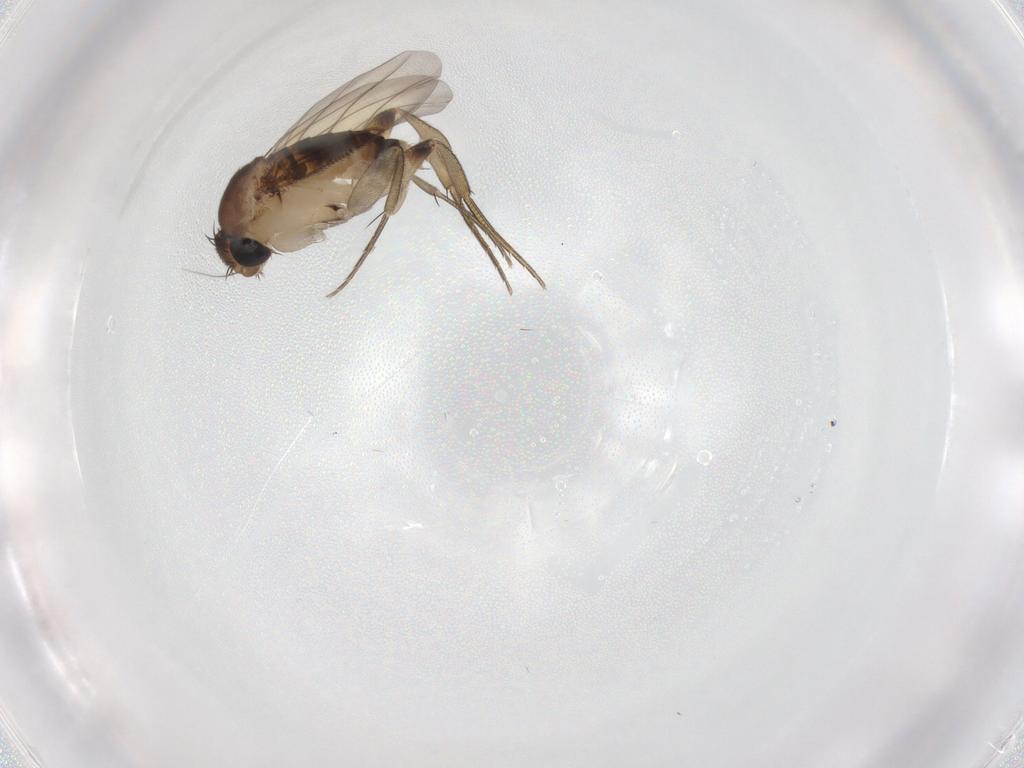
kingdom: Animalia
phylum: Arthropoda
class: Insecta
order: Diptera
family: Phoridae
